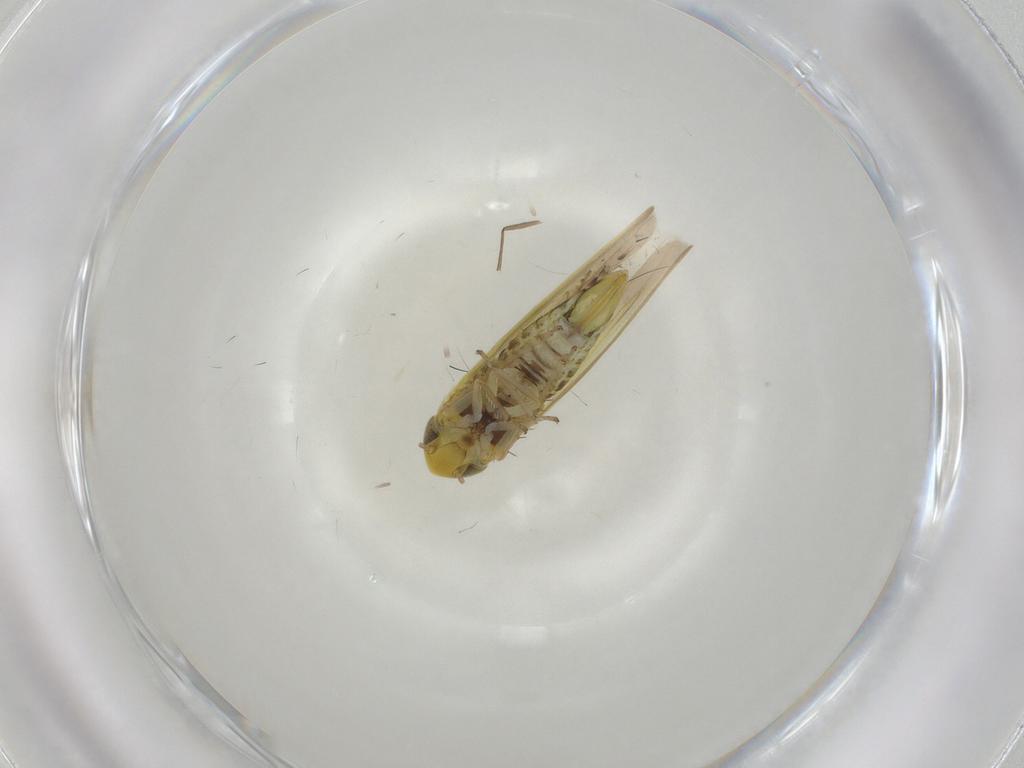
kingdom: Animalia
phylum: Arthropoda
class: Insecta
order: Hemiptera
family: Cicadellidae
